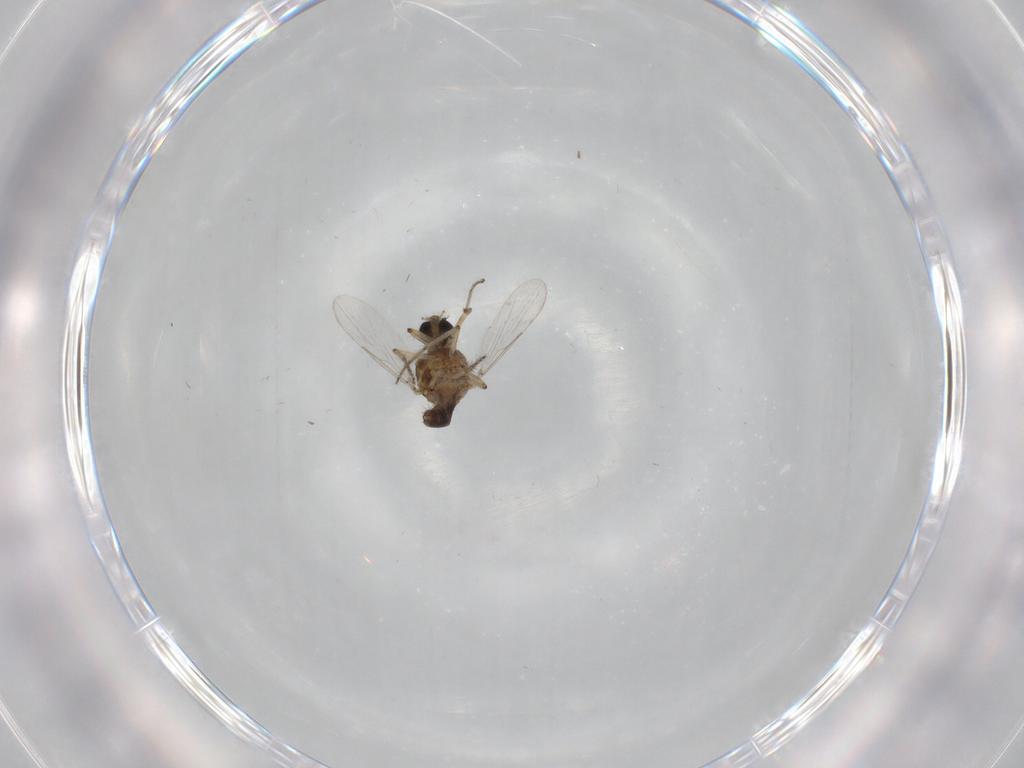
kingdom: Animalia
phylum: Arthropoda
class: Insecta
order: Diptera
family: Ceratopogonidae
